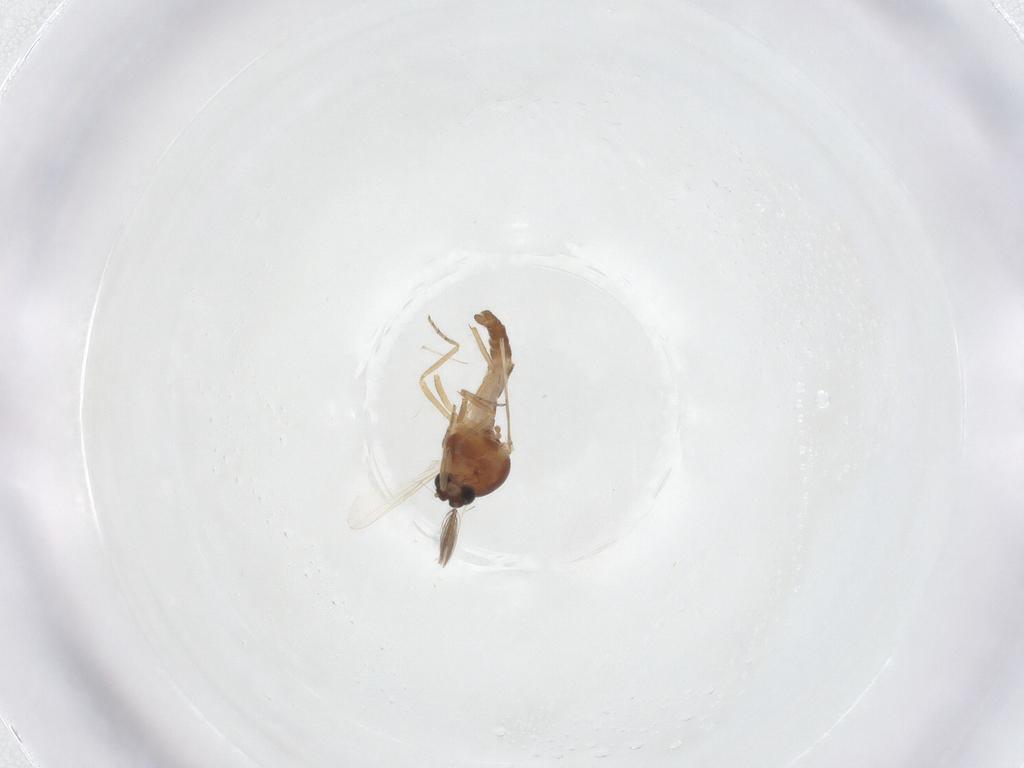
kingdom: Animalia
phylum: Arthropoda
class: Insecta
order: Diptera
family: Ceratopogonidae
